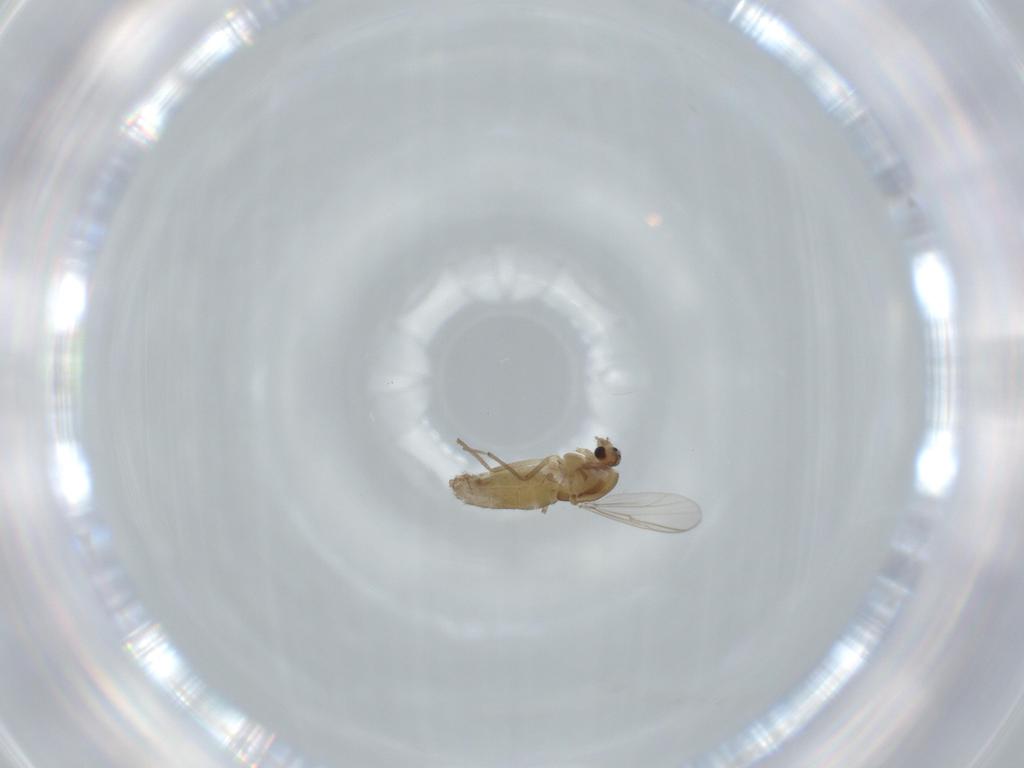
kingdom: Animalia
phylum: Arthropoda
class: Insecta
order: Diptera
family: Chironomidae
